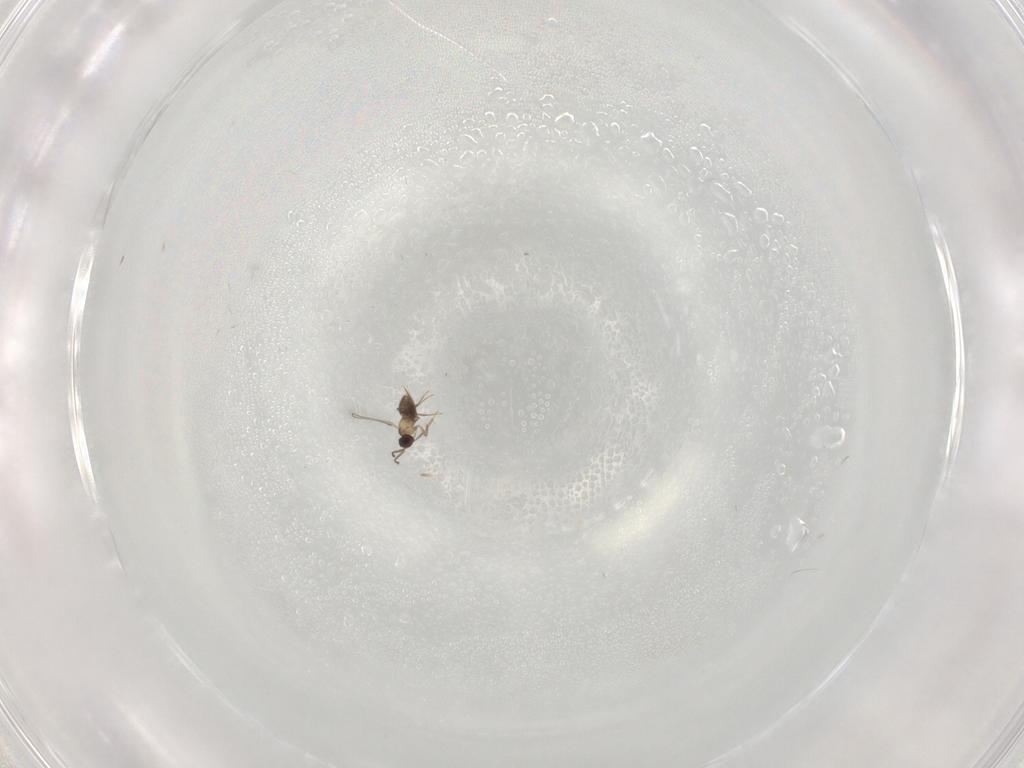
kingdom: Animalia
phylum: Arthropoda
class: Insecta
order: Hymenoptera
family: Mymaridae
